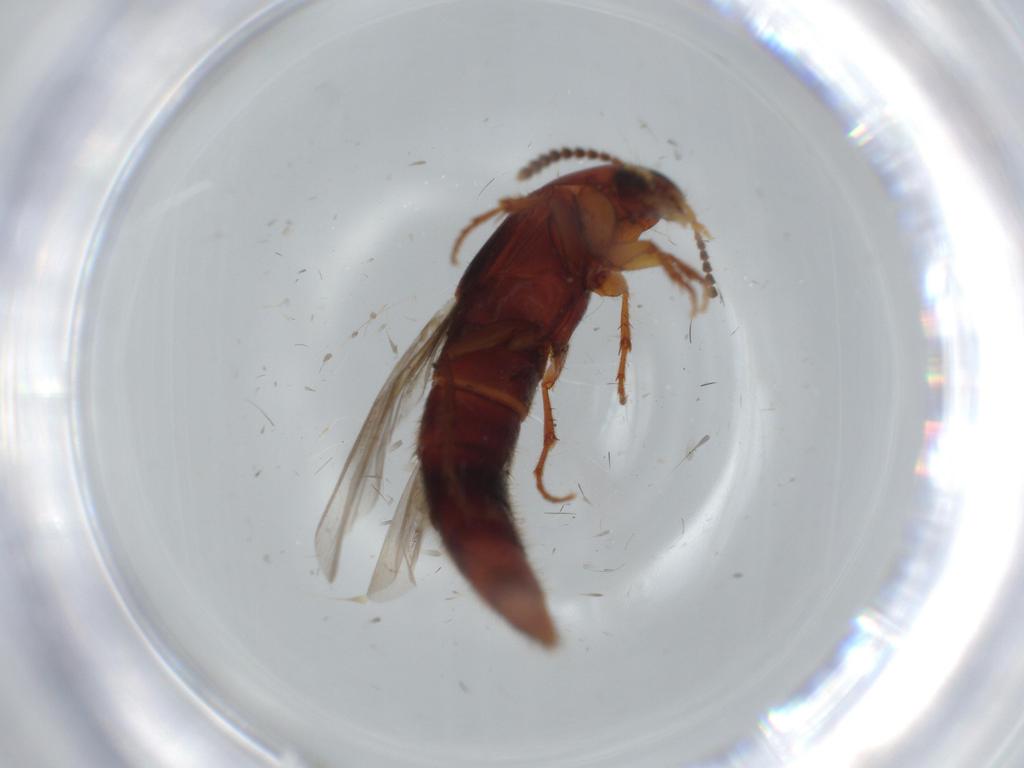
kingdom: Animalia
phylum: Arthropoda
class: Insecta
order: Coleoptera
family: Staphylinidae
